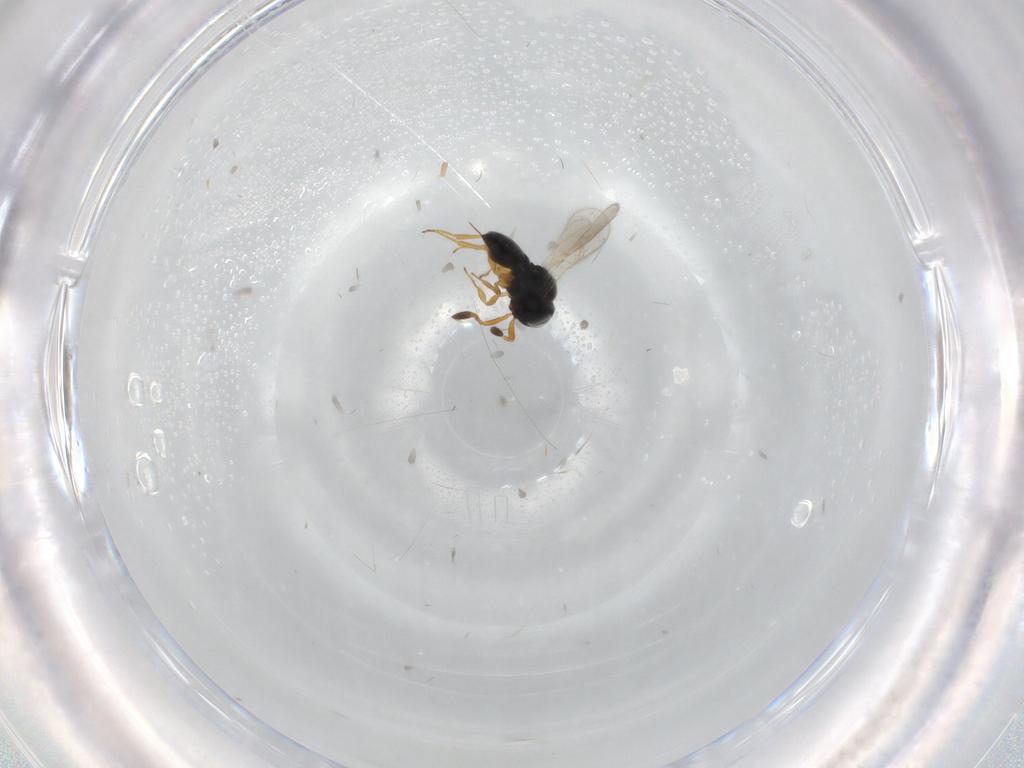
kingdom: Animalia
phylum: Arthropoda
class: Insecta
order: Hymenoptera
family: Scelionidae
